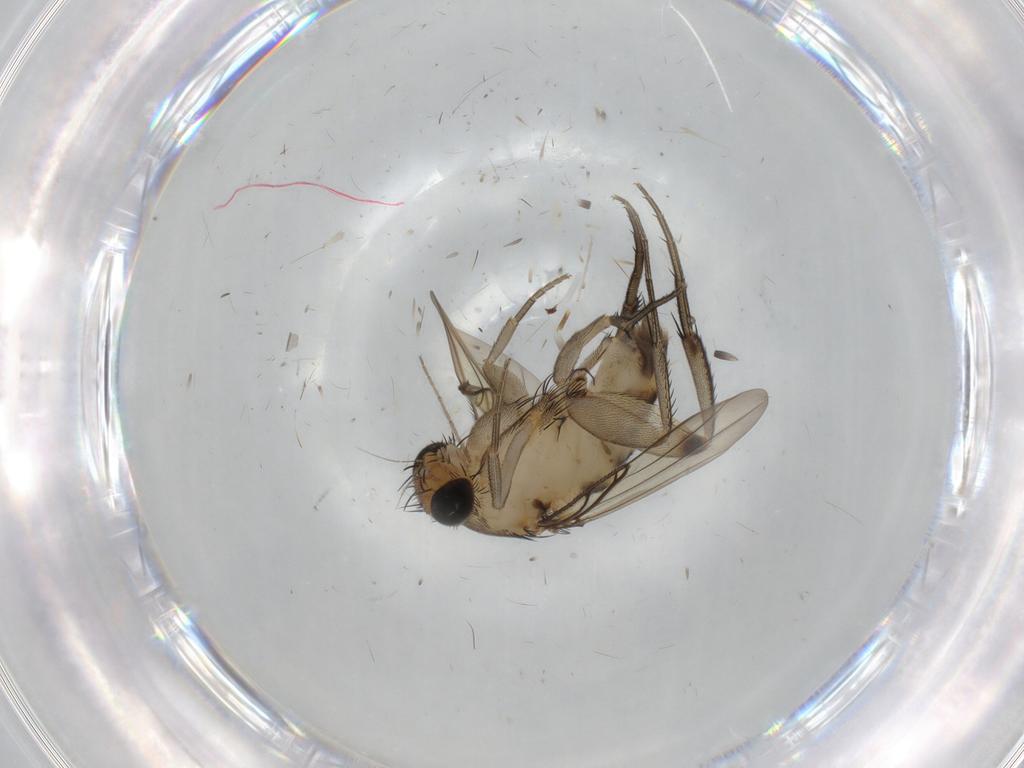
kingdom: Animalia
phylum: Arthropoda
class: Insecta
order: Diptera
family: Phoridae
